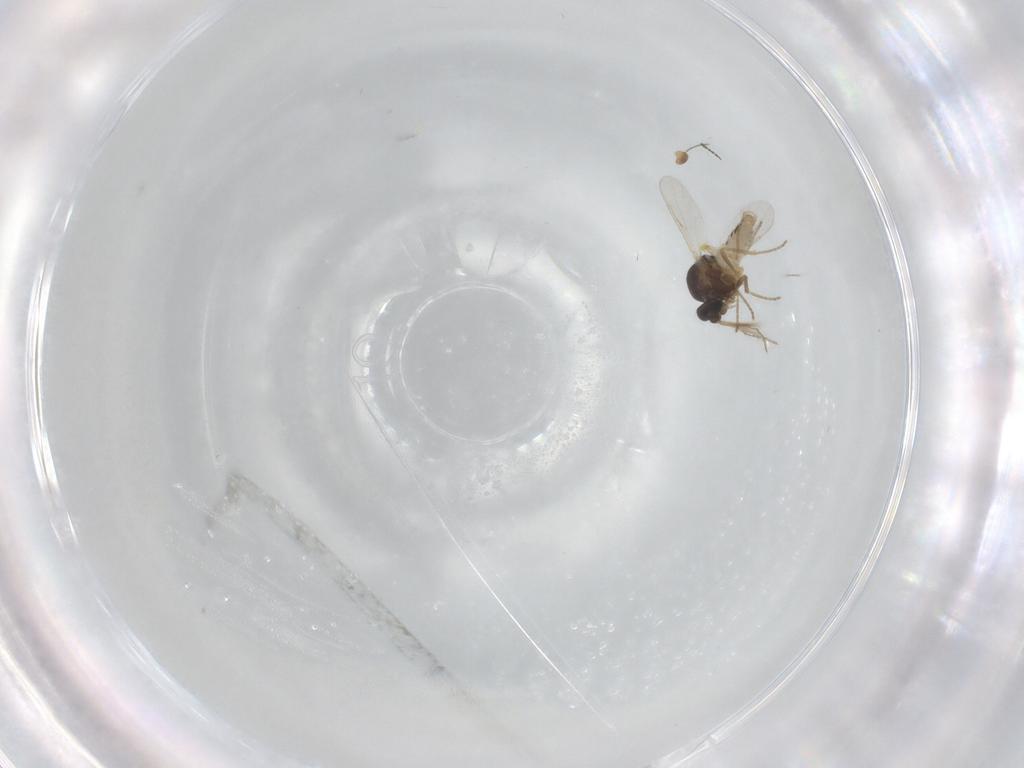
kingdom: Animalia
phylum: Arthropoda
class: Insecta
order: Diptera
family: Ceratopogonidae
